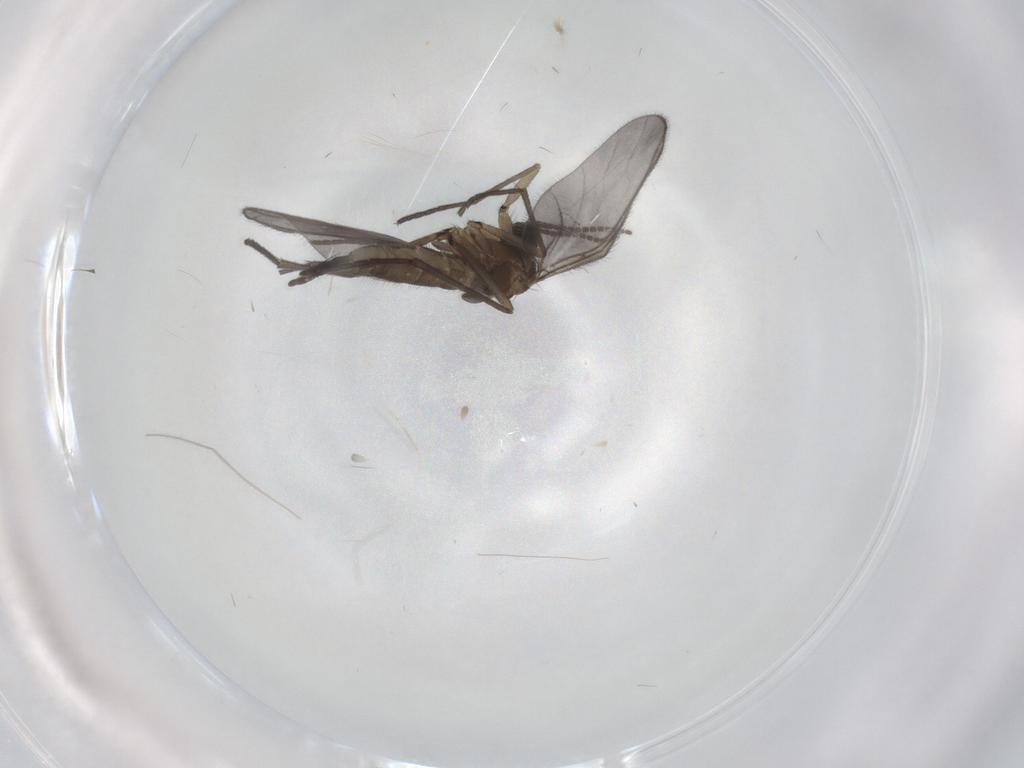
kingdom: Animalia
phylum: Arthropoda
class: Insecta
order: Diptera
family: Sciaridae
